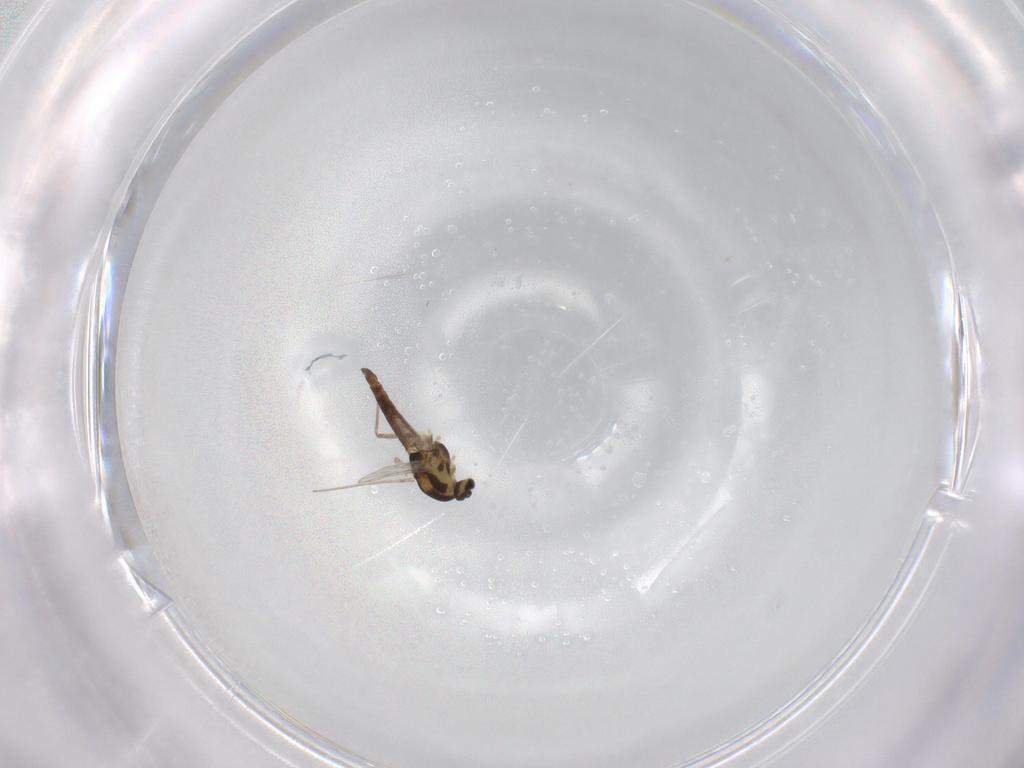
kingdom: Animalia
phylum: Arthropoda
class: Insecta
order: Diptera
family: Chironomidae
